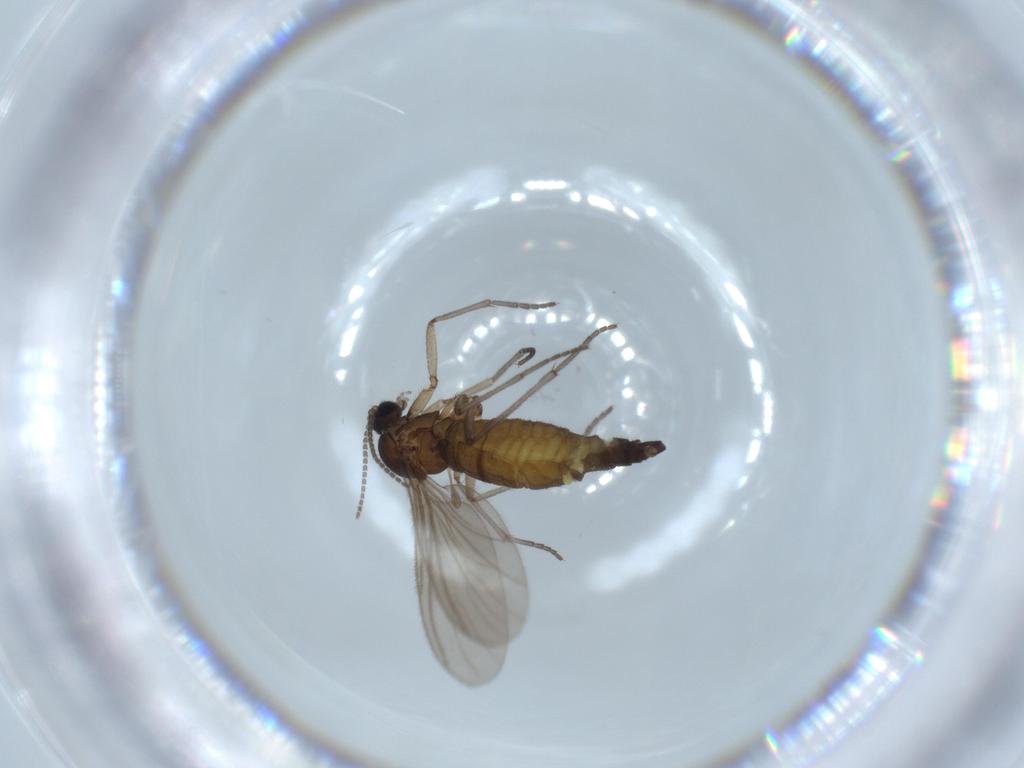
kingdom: Animalia
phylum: Arthropoda
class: Insecta
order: Diptera
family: Sciaridae
